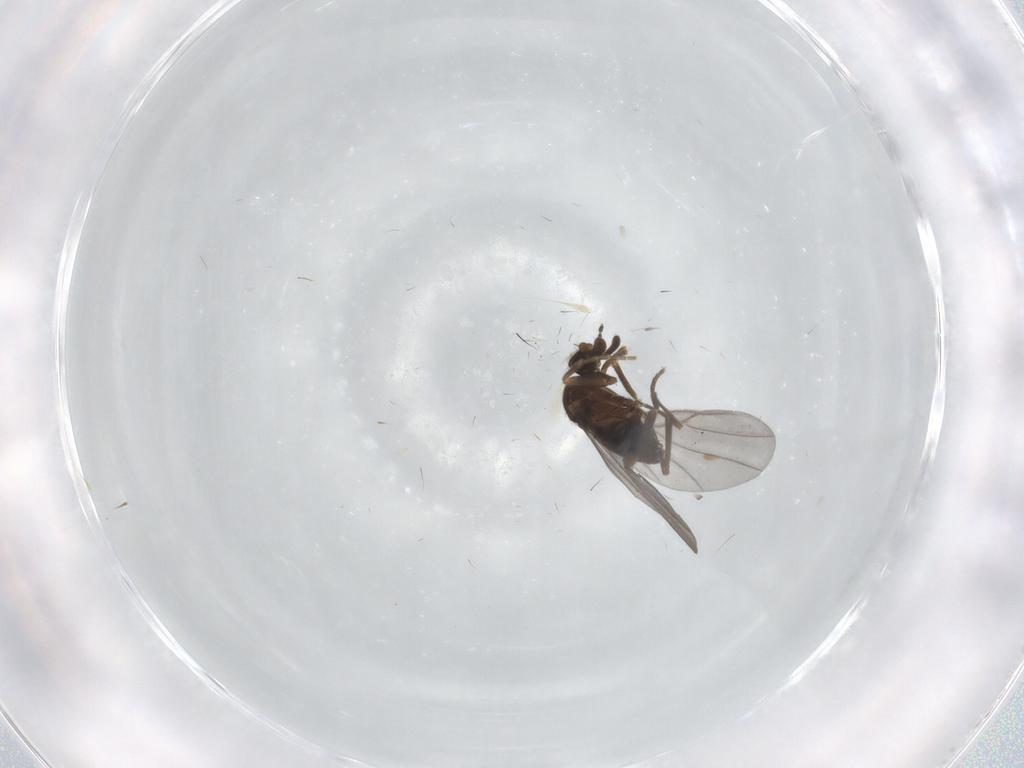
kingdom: Animalia
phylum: Arthropoda
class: Insecta
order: Diptera
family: Sciaridae
